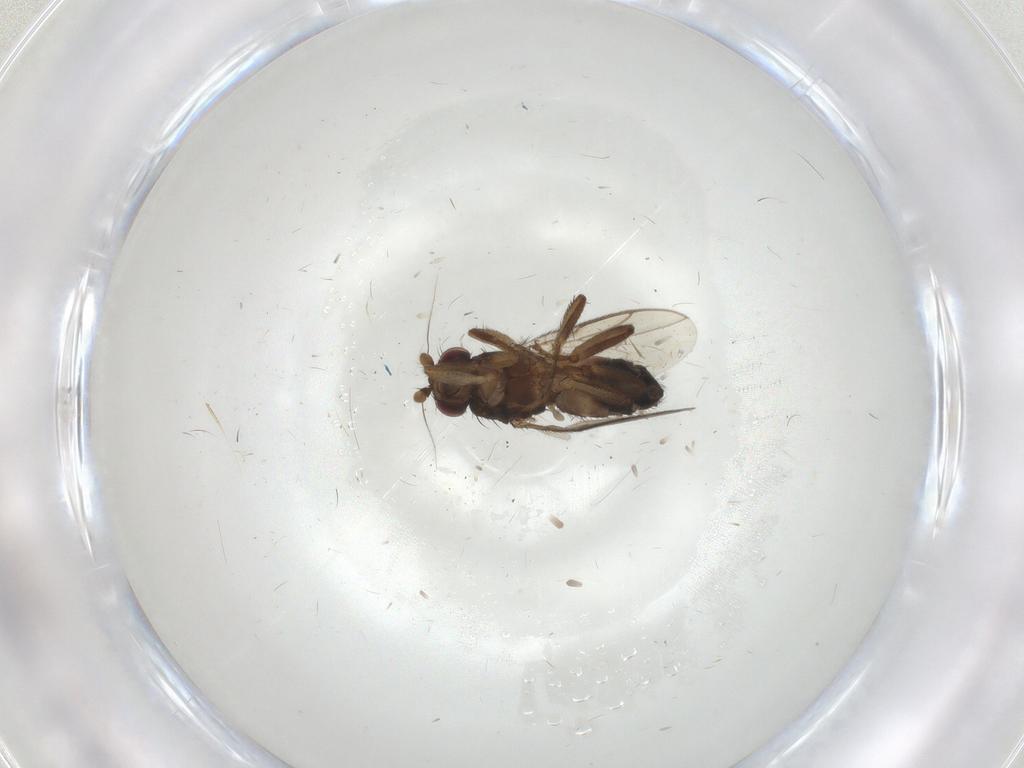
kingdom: Animalia
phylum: Arthropoda
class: Insecta
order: Diptera
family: Sphaeroceridae
